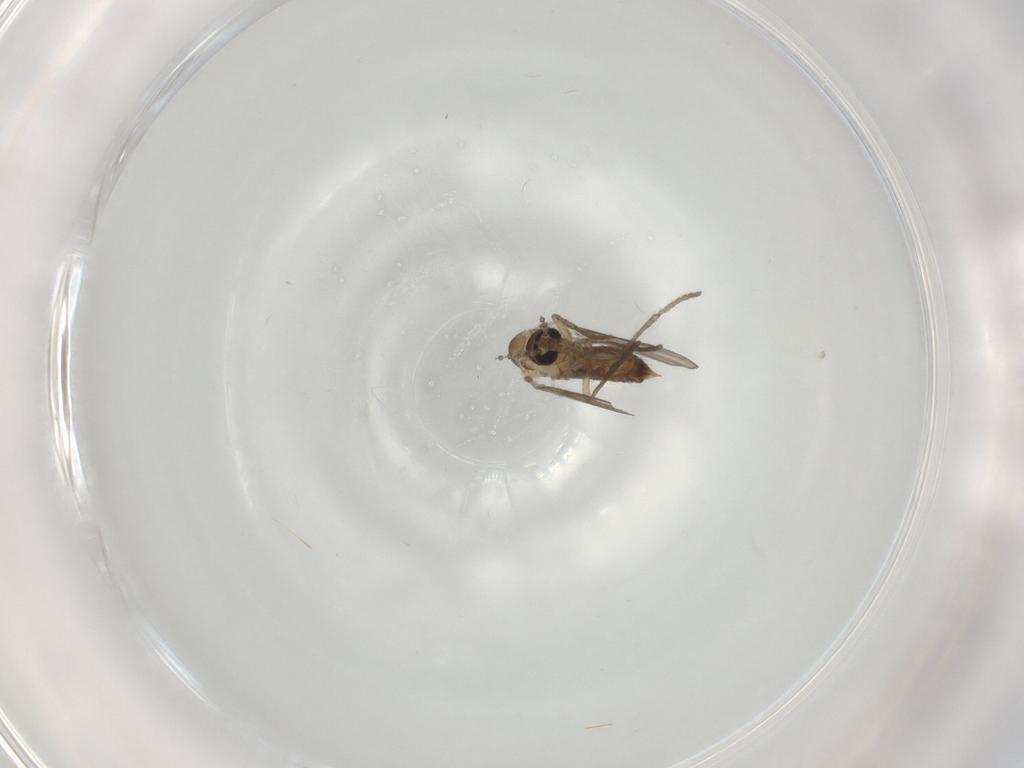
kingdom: Animalia
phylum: Arthropoda
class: Insecta
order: Diptera
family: Psychodidae
